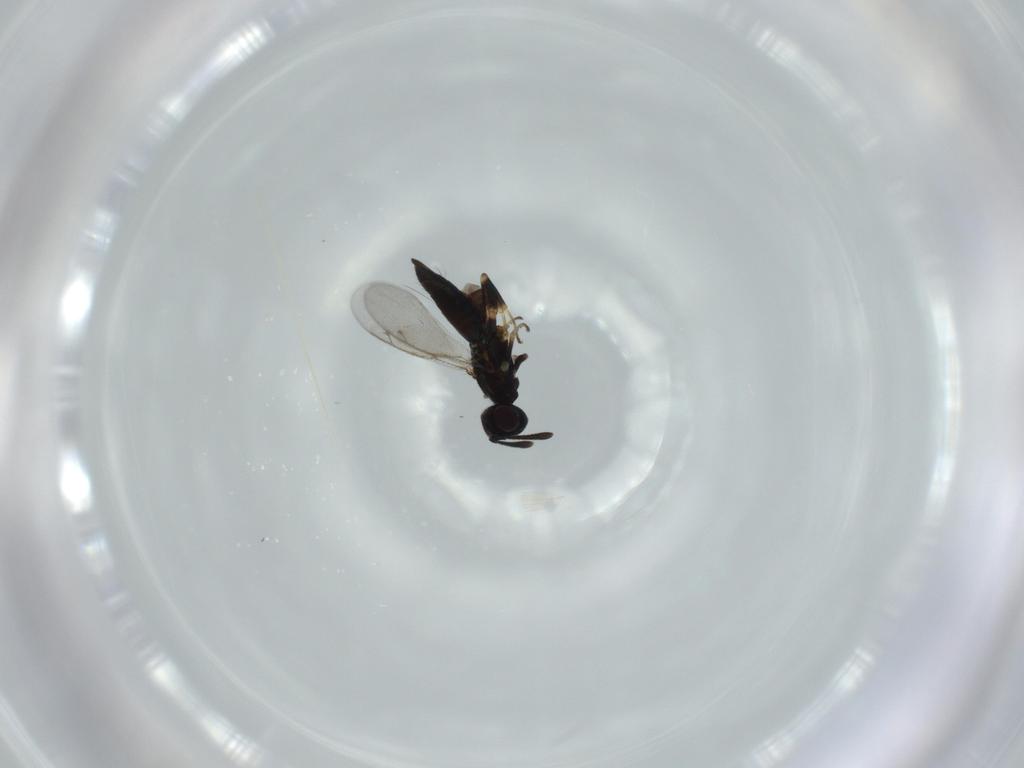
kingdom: Animalia
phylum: Arthropoda
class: Insecta
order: Hymenoptera
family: Eupelmidae
